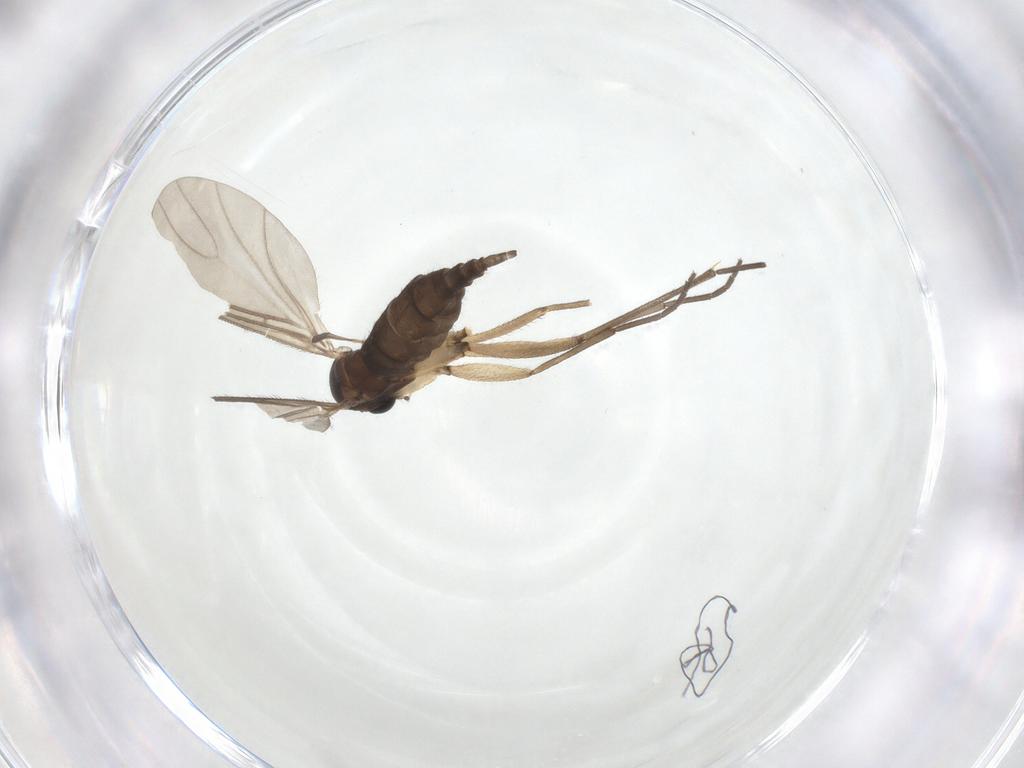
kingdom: Animalia
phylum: Arthropoda
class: Insecta
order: Diptera
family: Sciaridae
